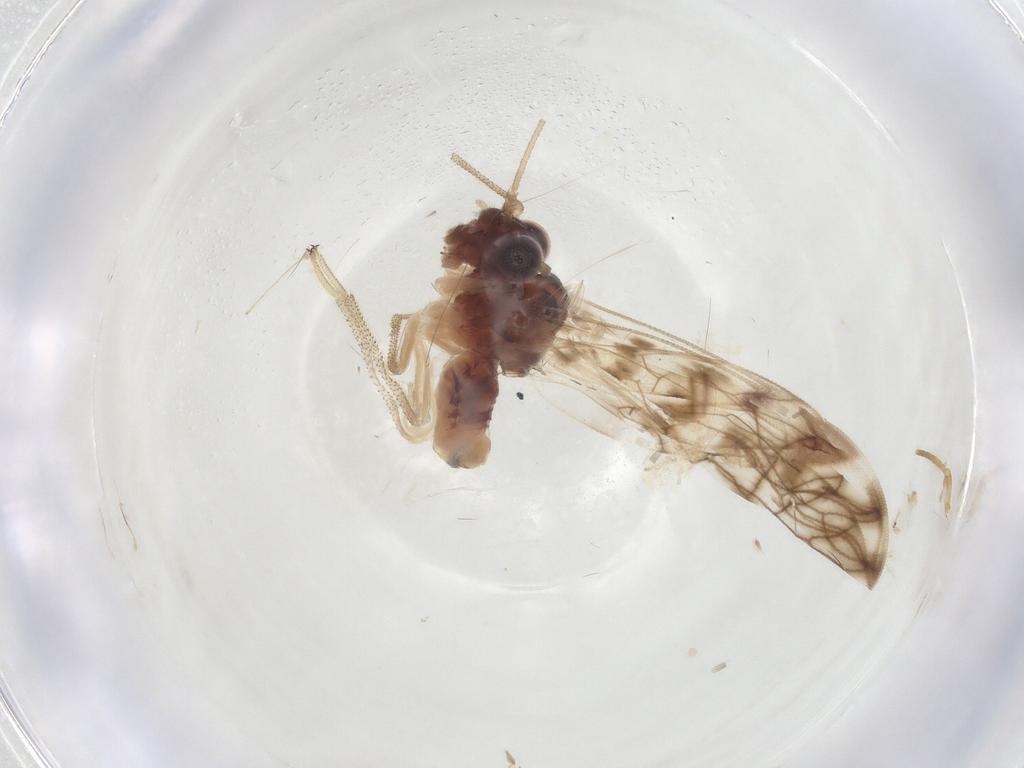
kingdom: Animalia
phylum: Arthropoda
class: Insecta
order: Psocodea
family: Amphipsocidae
